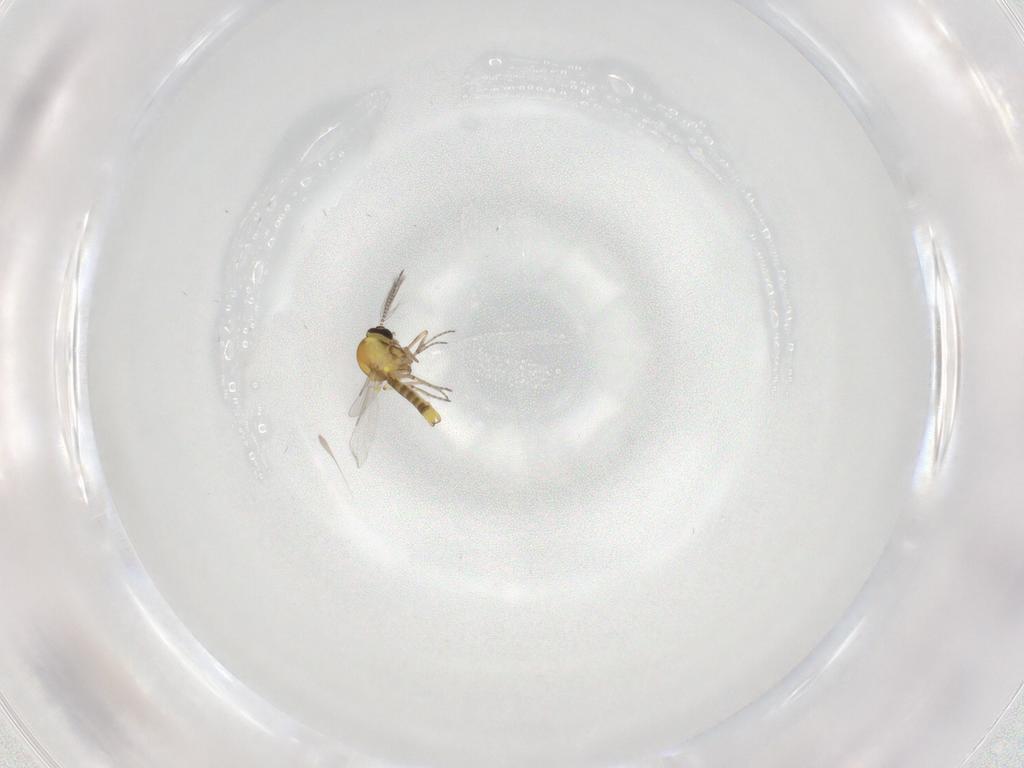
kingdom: Animalia
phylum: Arthropoda
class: Insecta
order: Diptera
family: Ceratopogonidae
